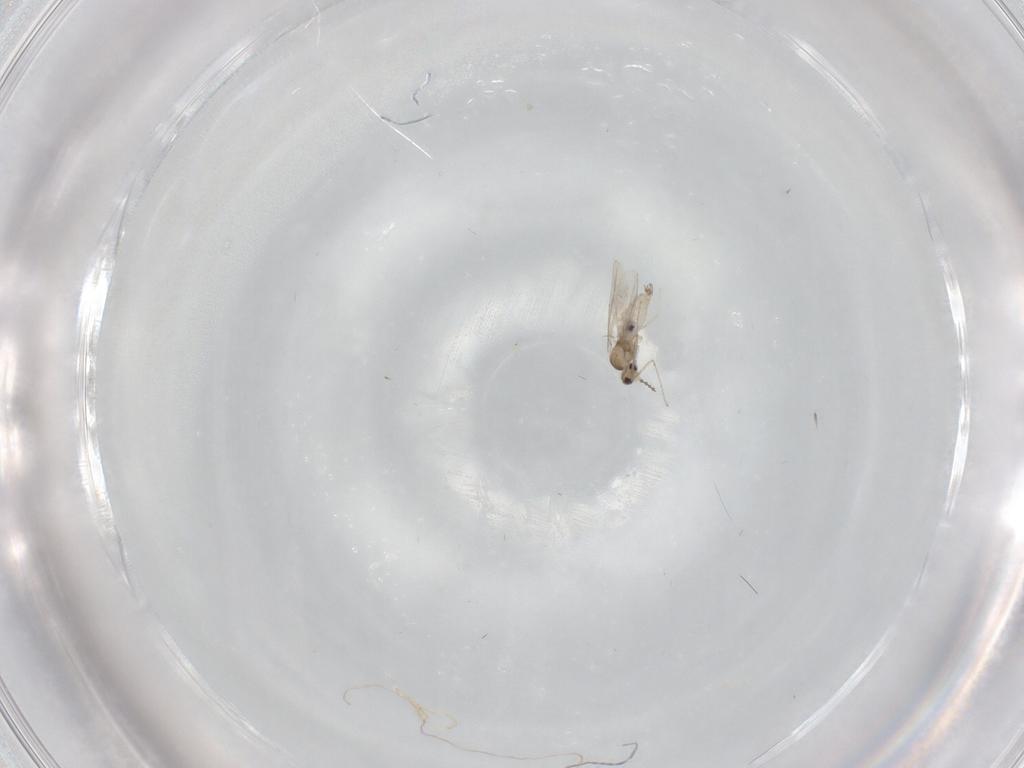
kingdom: Animalia
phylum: Arthropoda
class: Insecta
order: Diptera
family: Cecidomyiidae
